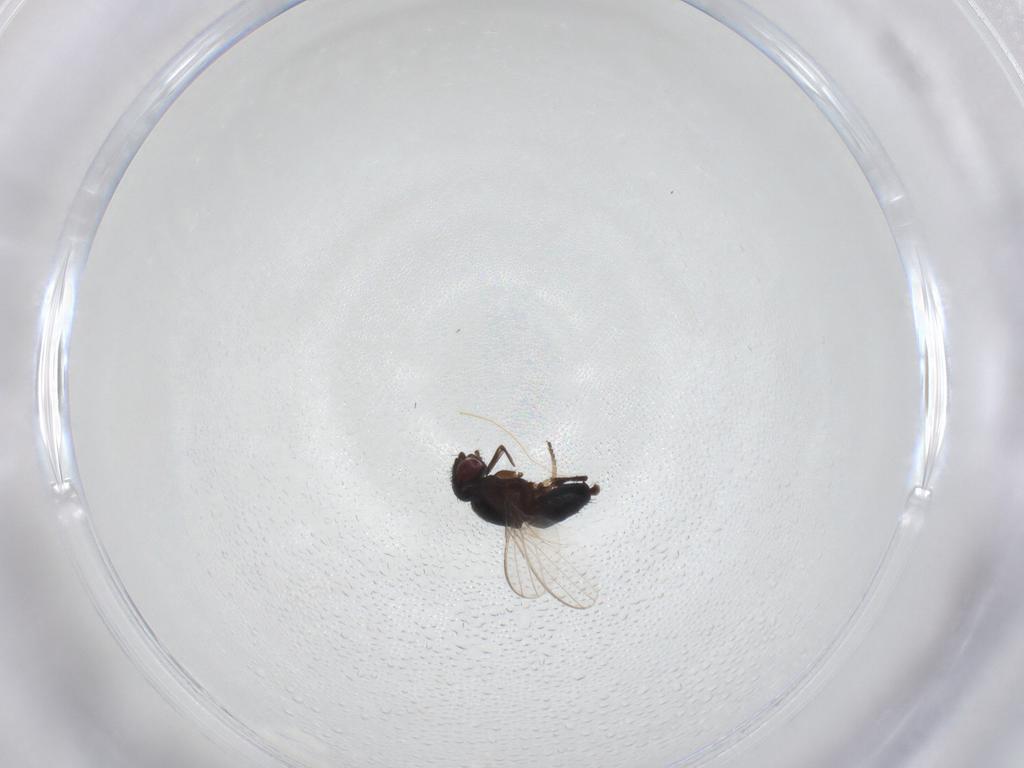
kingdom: Animalia
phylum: Arthropoda
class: Insecta
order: Diptera
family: Milichiidae
